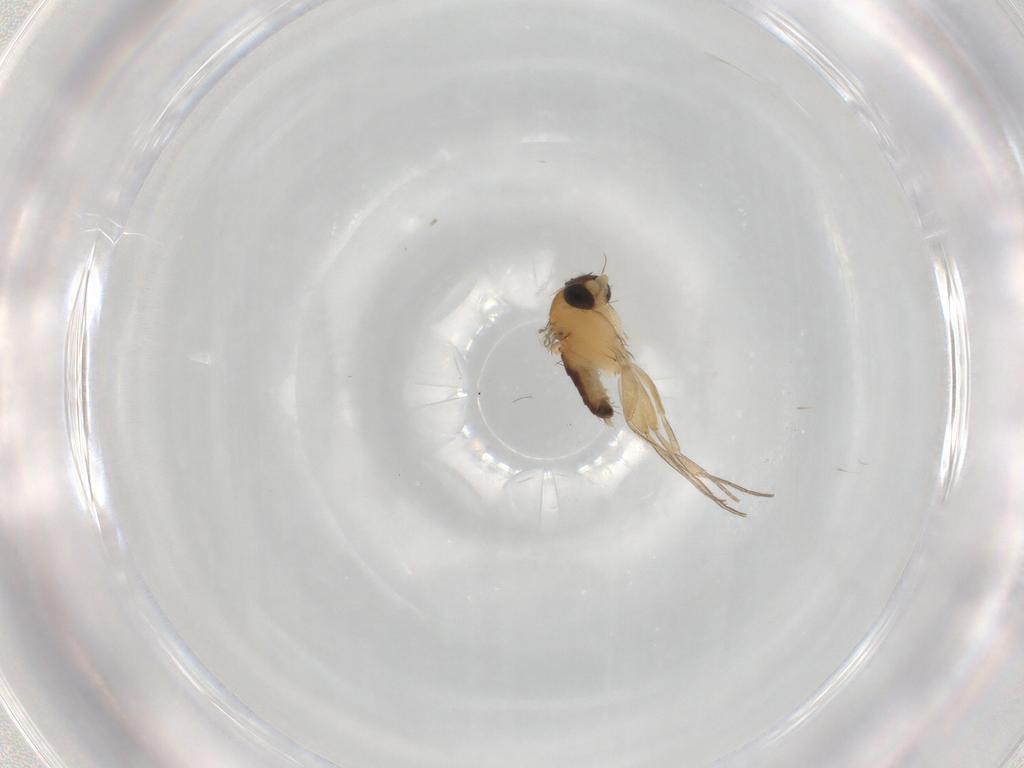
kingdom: Animalia
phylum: Arthropoda
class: Insecta
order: Diptera
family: Phoridae
